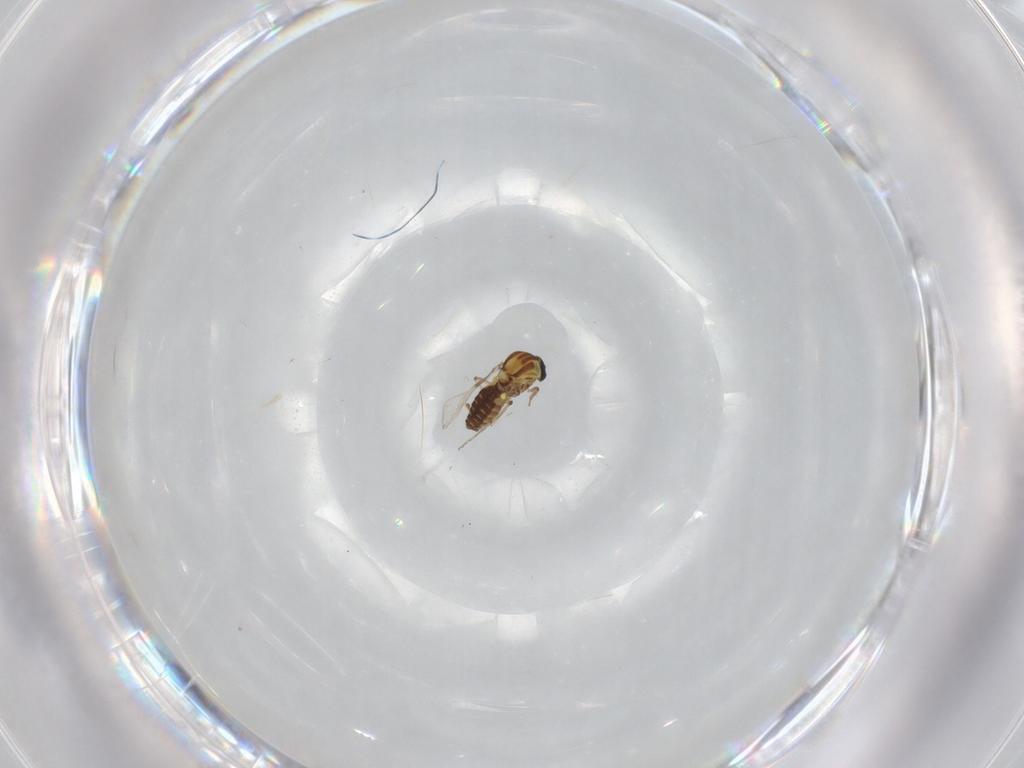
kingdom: Animalia
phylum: Arthropoda
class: Insecta
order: Diptera
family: Ceratopogonidae
